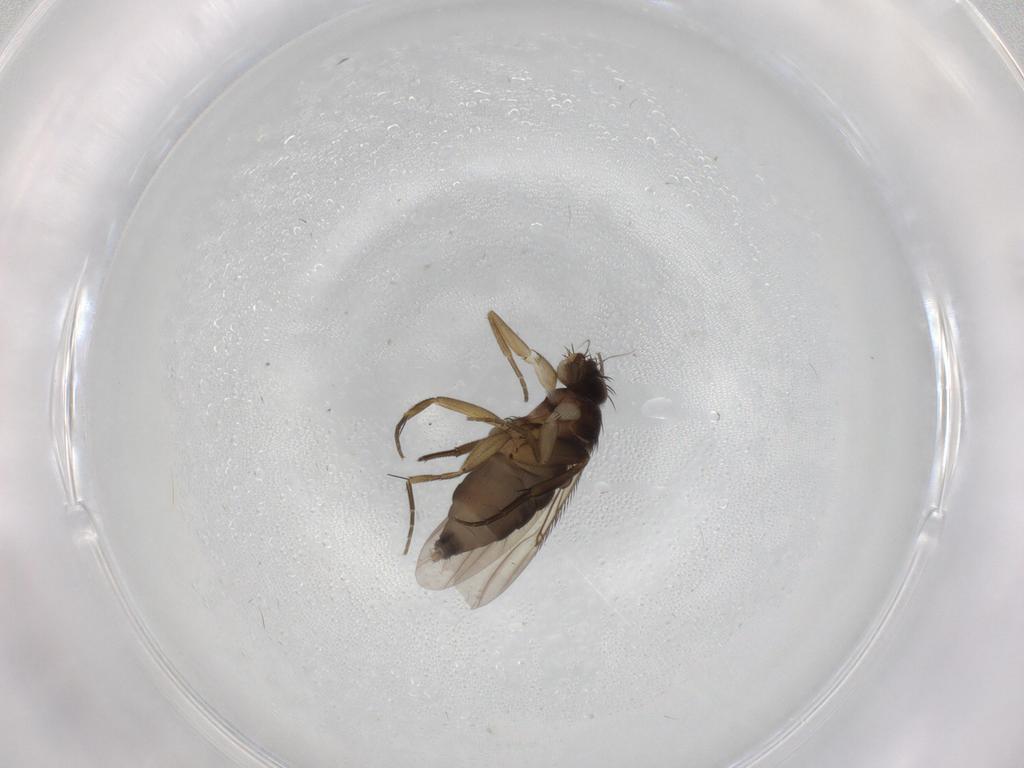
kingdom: Animalia
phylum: Arthropoda
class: Insecta
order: Diptera
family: Phoridae
